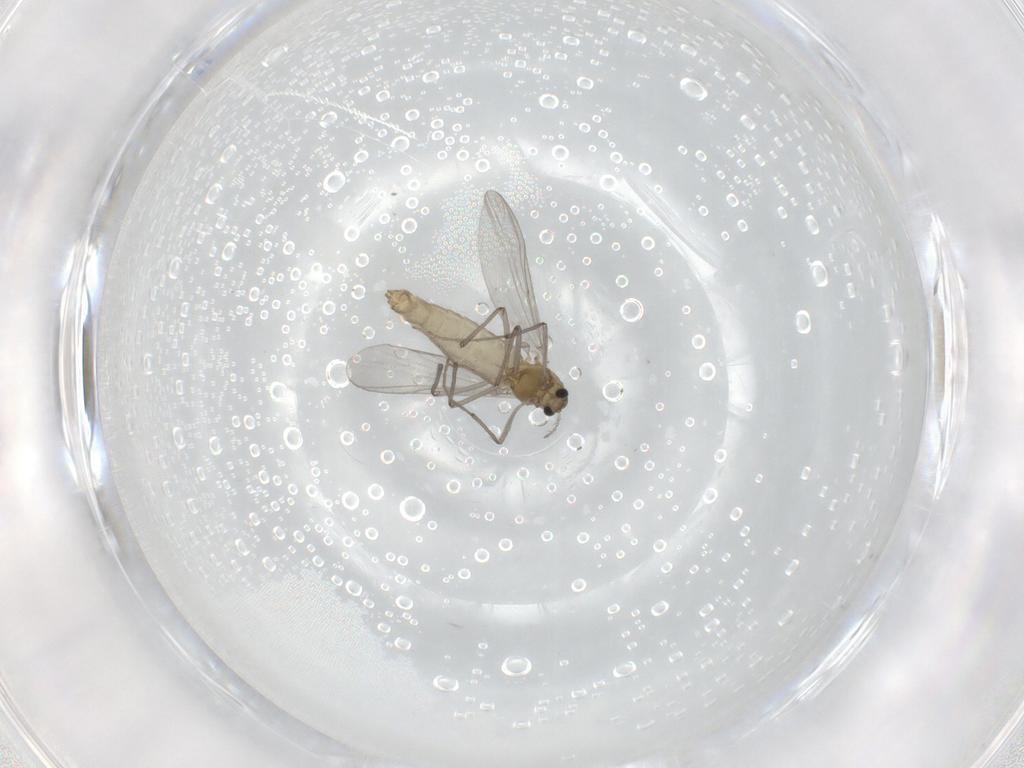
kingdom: Animalia
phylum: Arthropoda
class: Insecta
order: Diptera
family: Chironomidae
